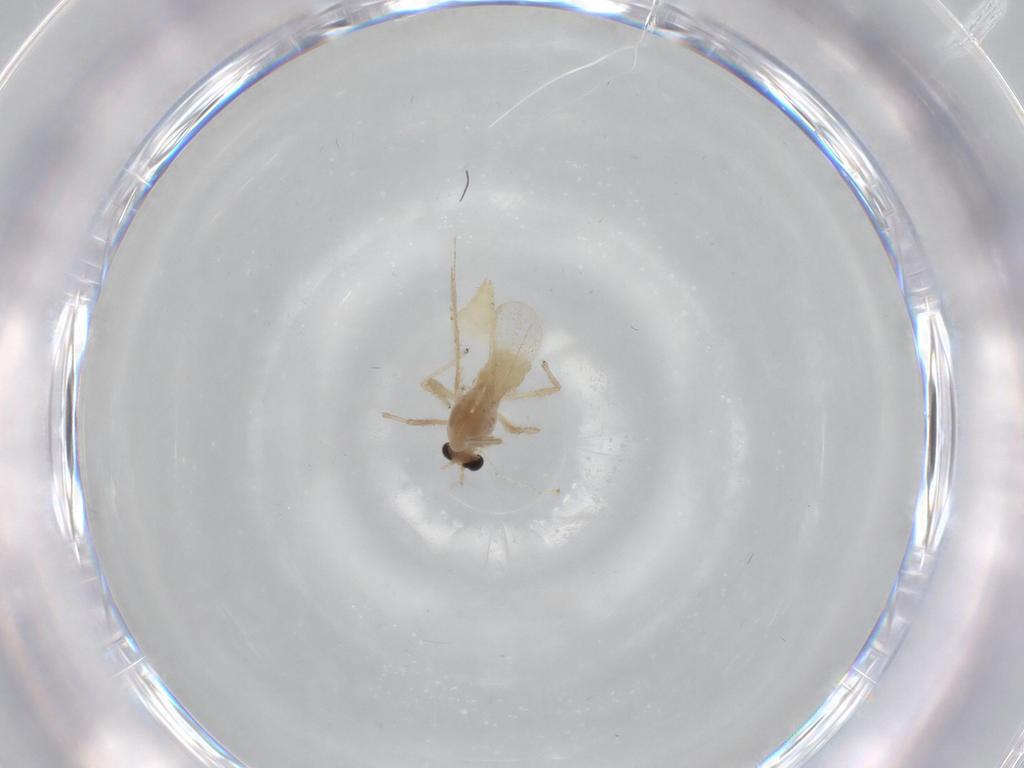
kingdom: Animalia
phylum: Arthropoda
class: Insecta
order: Diptera
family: Chironomidae
